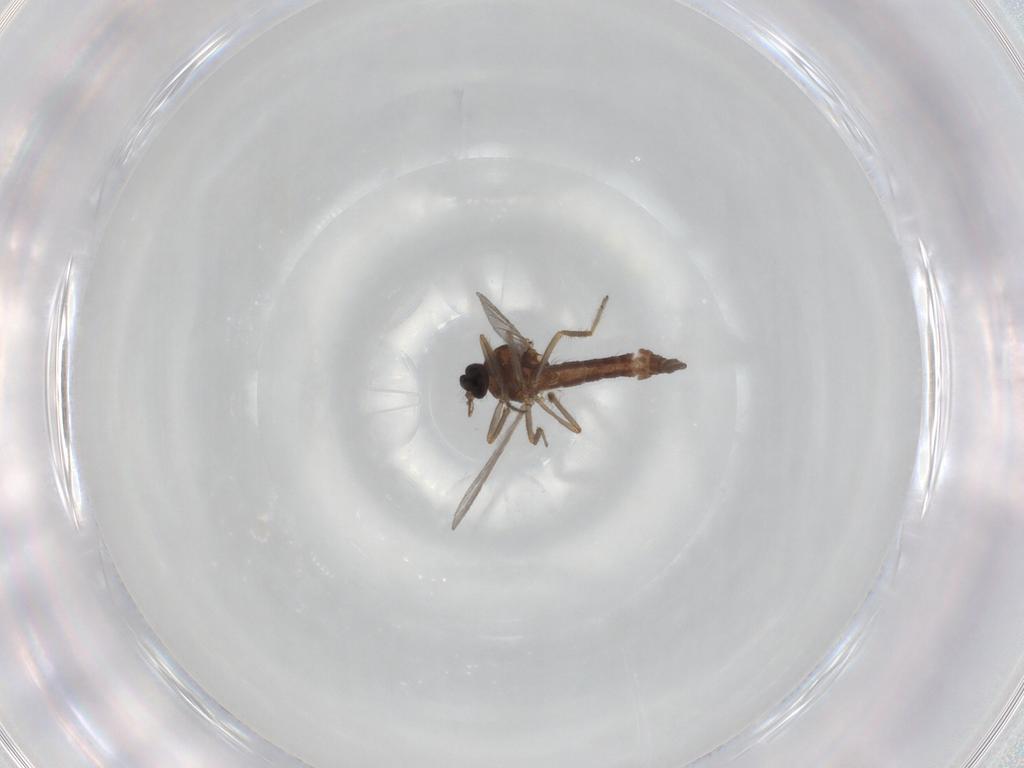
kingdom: Animalia
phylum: Arthropoda
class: Insecta
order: Diptera
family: Ceratopogonidae
